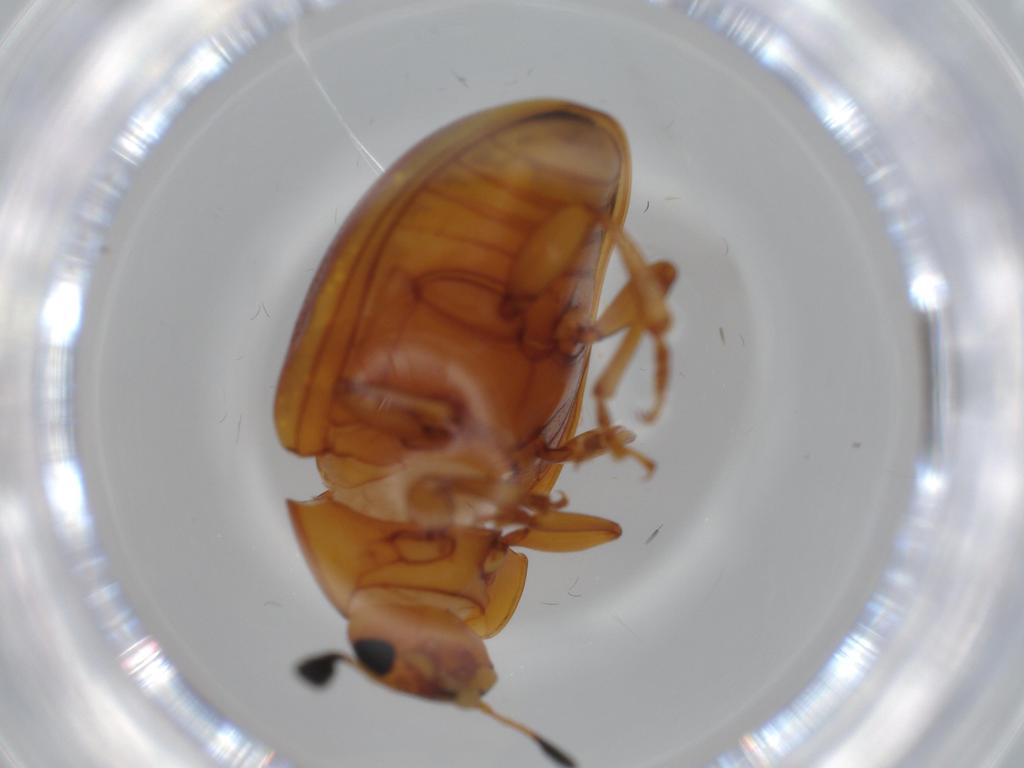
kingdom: Animalia
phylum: Arthropoda
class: Insecta
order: Coleoptera
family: Erotylidae
